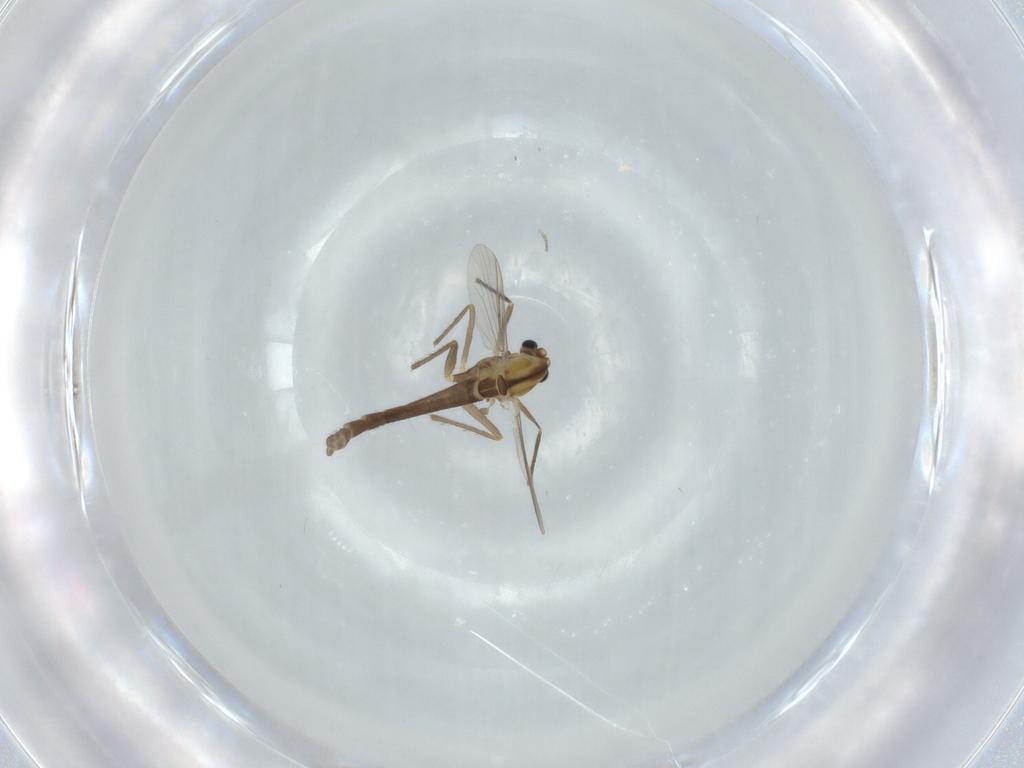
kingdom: Animalia
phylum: Arthropoda
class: Insecta
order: Diptera
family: Chironomidae
